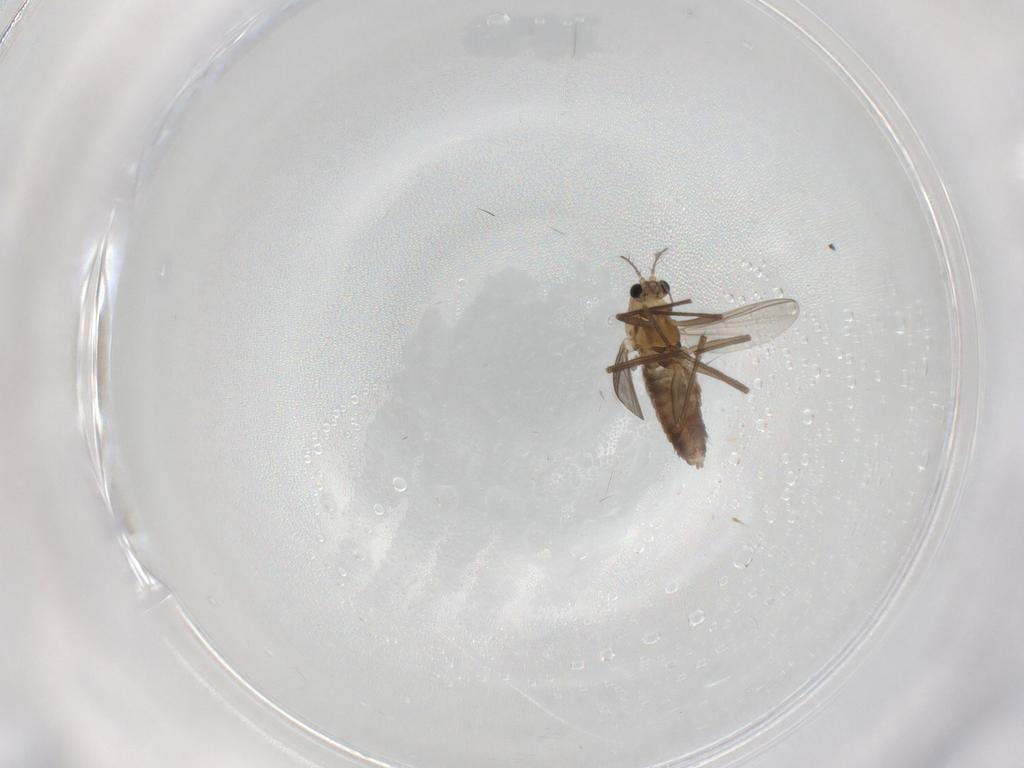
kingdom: Animalia
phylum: Arthropoda
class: Insecta
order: Diptera
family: Chironomidae
